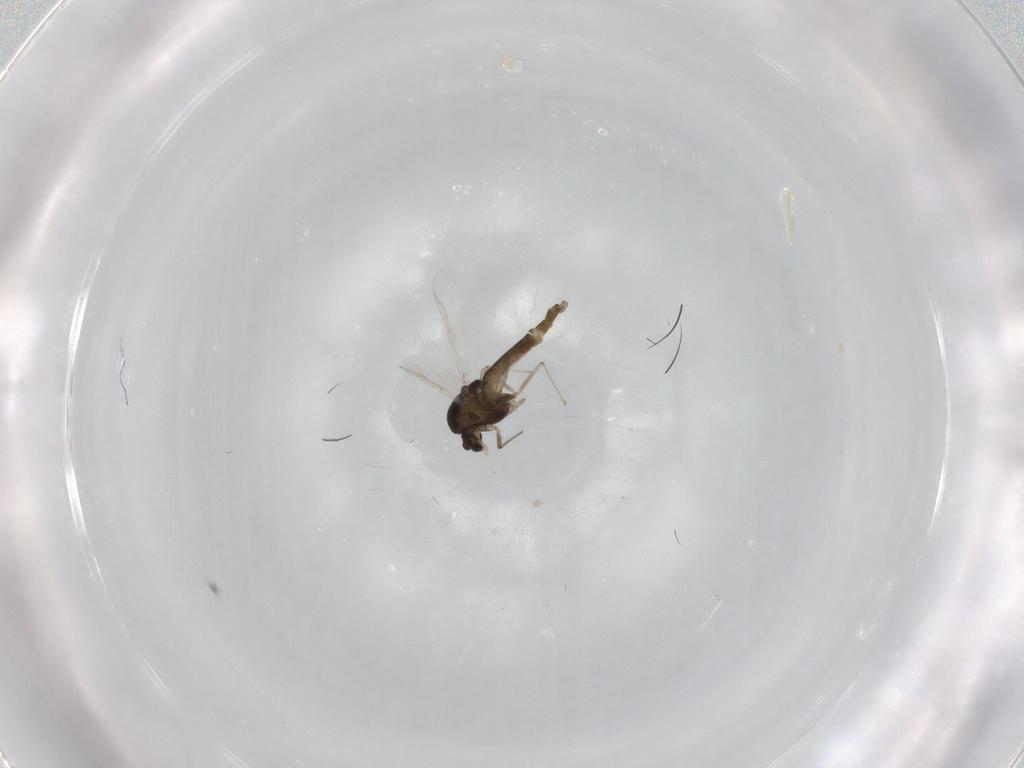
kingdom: Animalia
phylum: Arthropoda
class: Insecta
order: Diptera
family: Chironomidae
